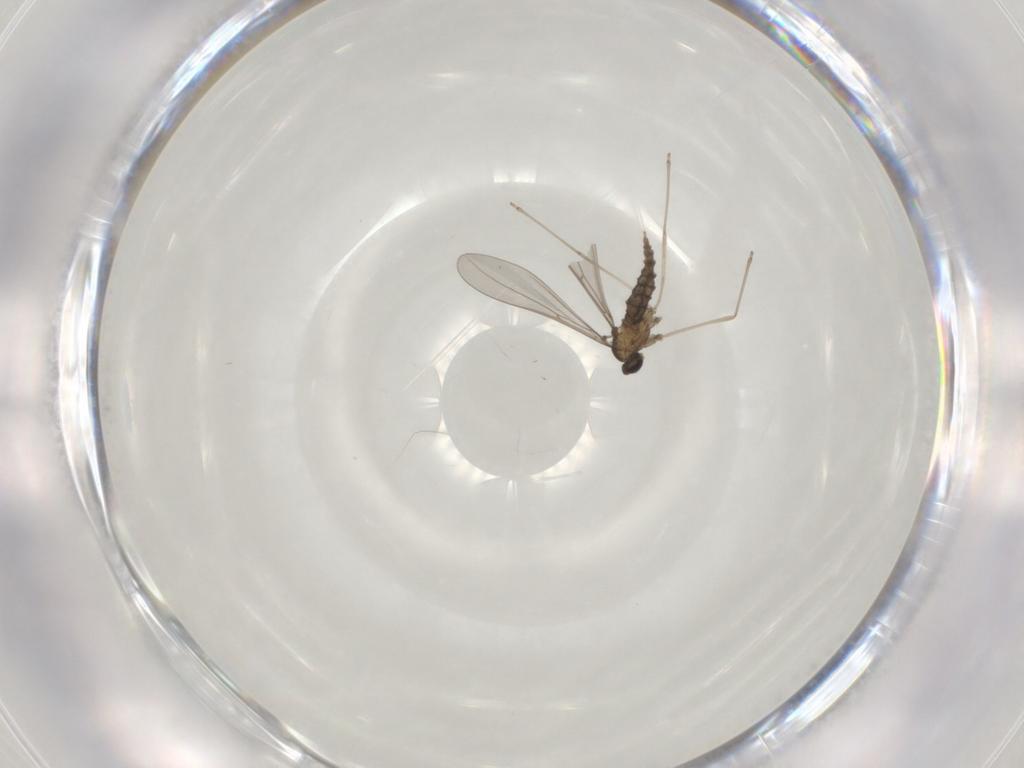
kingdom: Animalia
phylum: Arthropoda
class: Insecta
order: Diptera
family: Cecidomyiidae
